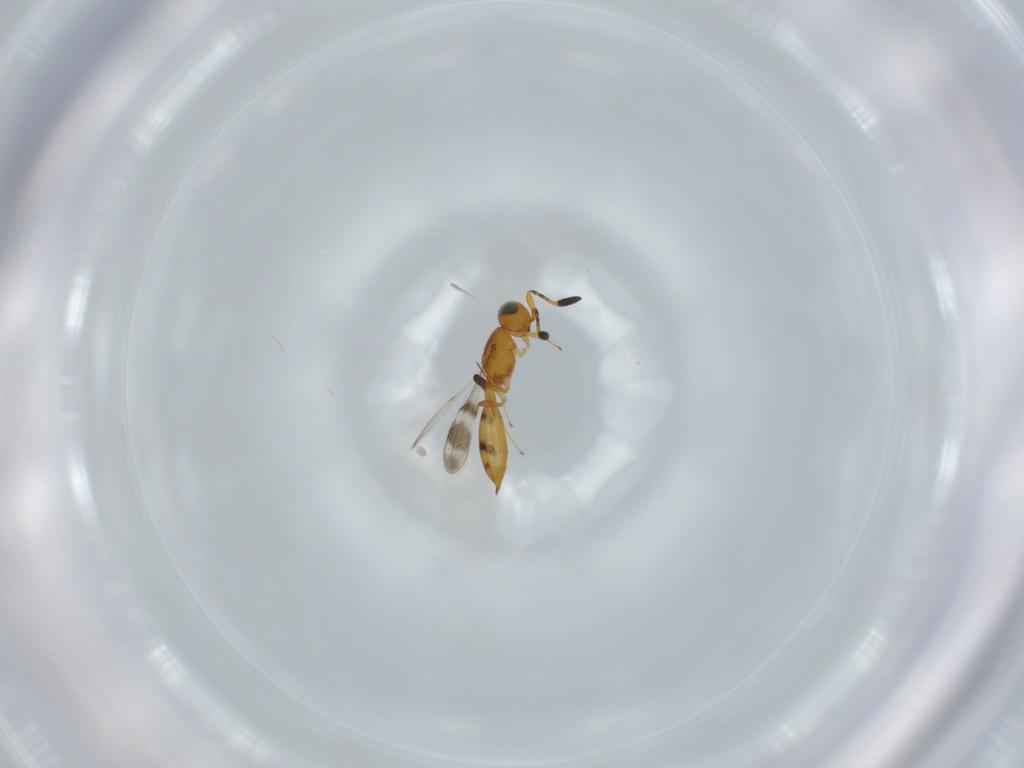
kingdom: Animalia
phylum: Arthropoda
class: Insecta
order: Hymenoptera
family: Scelionidae
